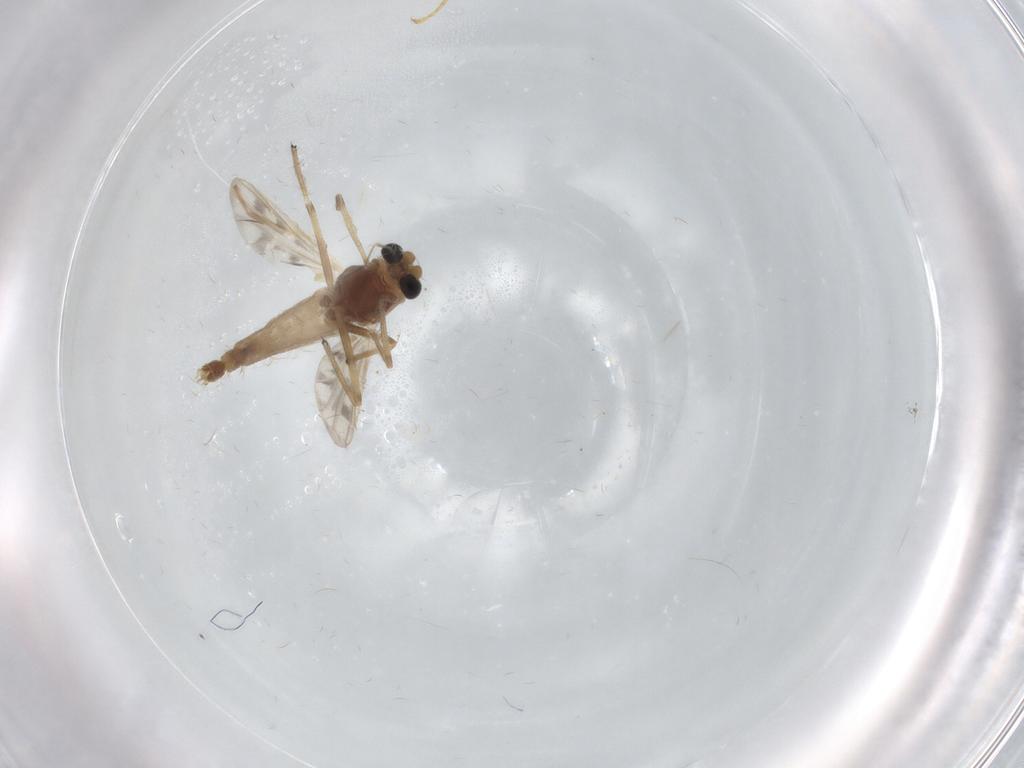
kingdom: Animalia
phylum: Arthropoda
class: Insecta
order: Diptera
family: Chironomidae
